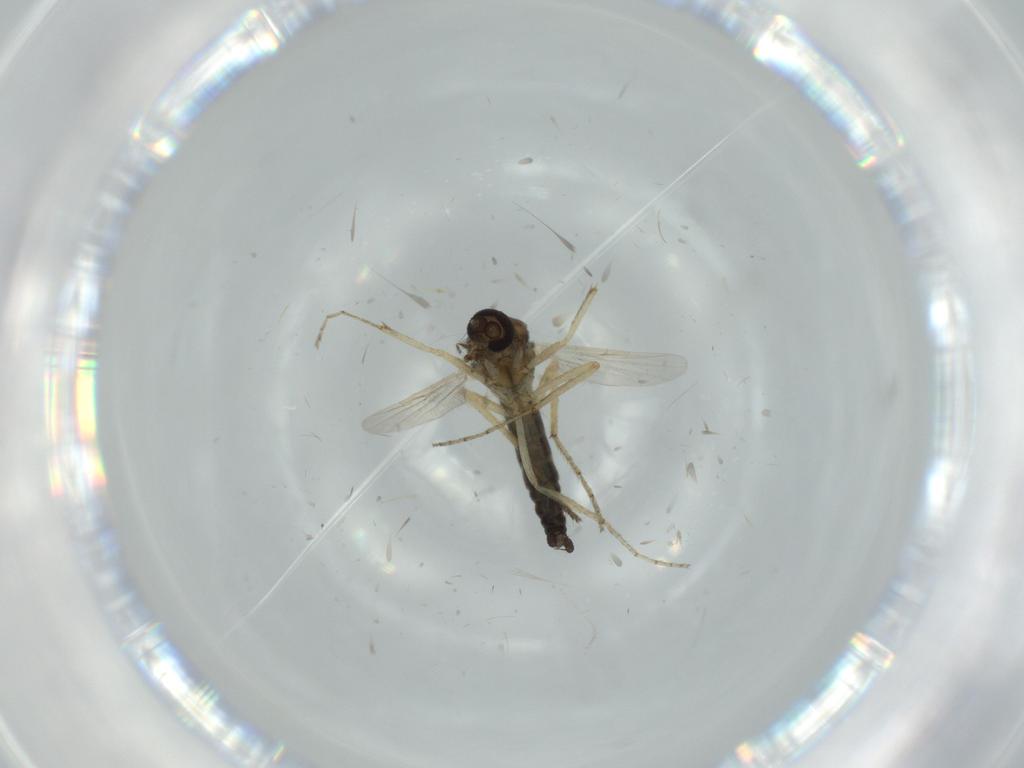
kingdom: Animalia
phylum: Arthropoda
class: Insecta
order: Diptera
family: Ceratopogonidae
